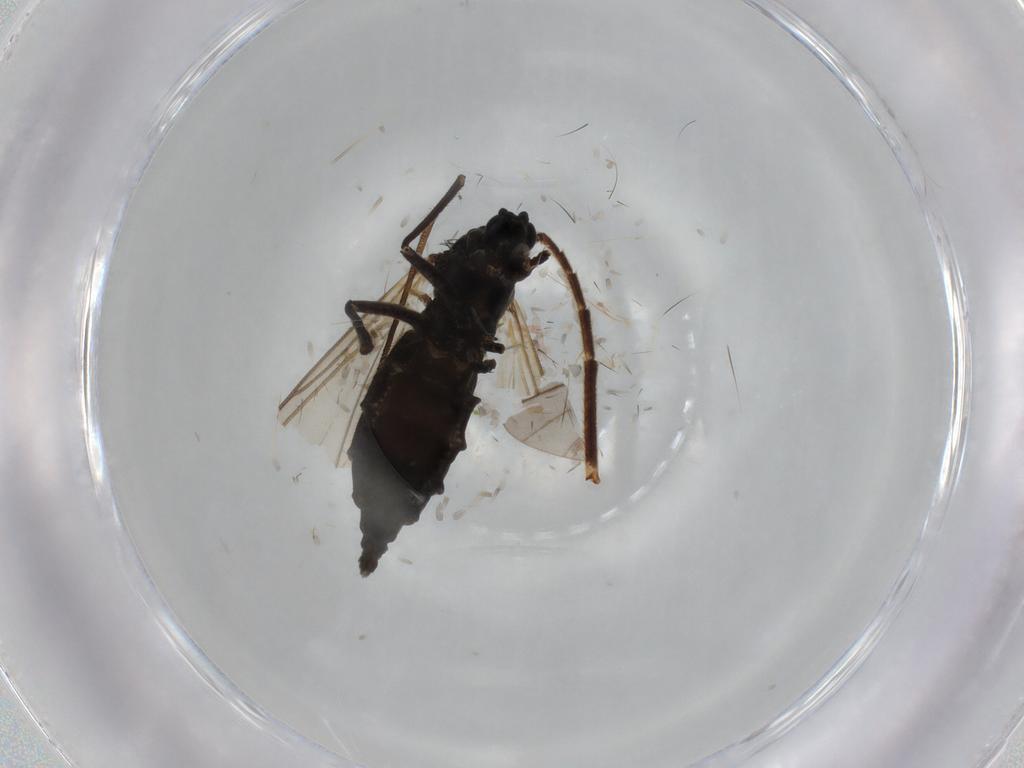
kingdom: Animalia
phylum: Arthropoda
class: Insecta
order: Diptera
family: Sciaridae
